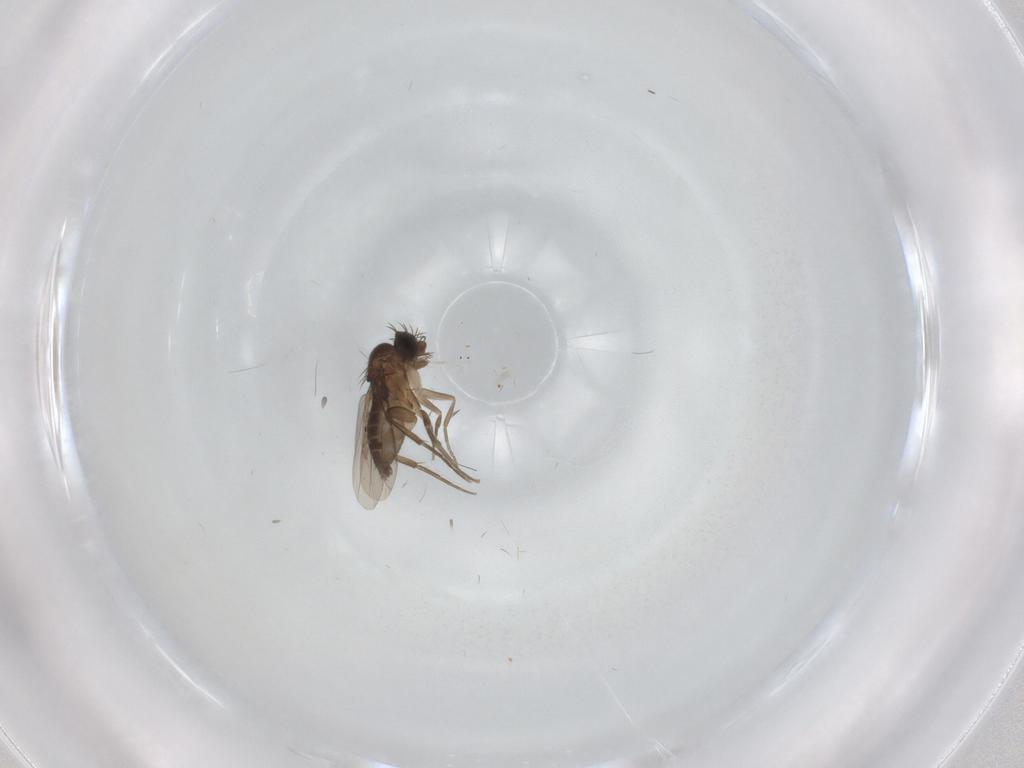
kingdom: Animalia
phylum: Arthropoda
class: Insecta
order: Diptera
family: Phoridae
